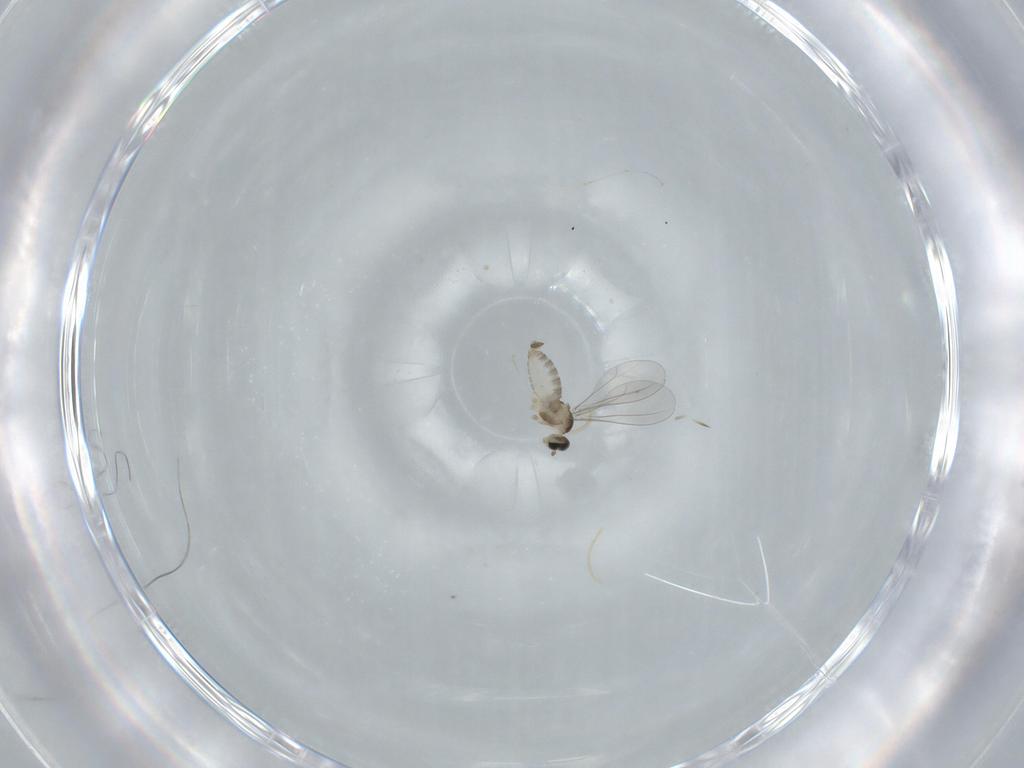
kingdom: Animalia
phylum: Arthropoda
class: Insecta
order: Diptera
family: Cecidomyiidae
